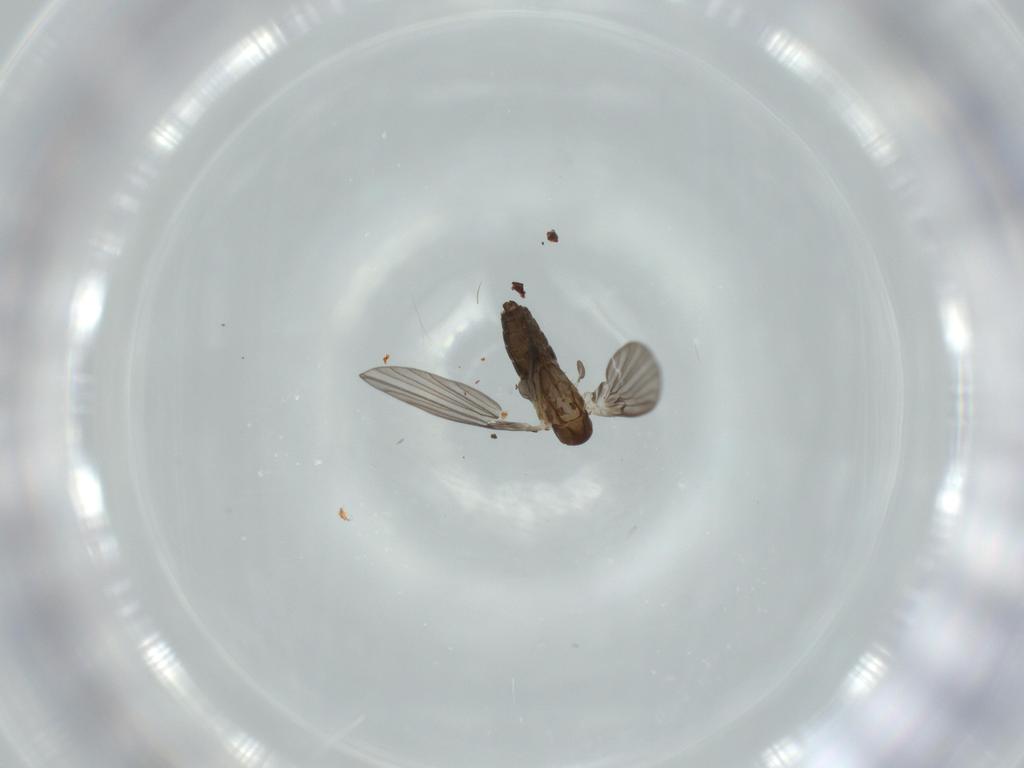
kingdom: Animalia
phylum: Arthropoda
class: Insecta
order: Diptera
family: Psychodidae
